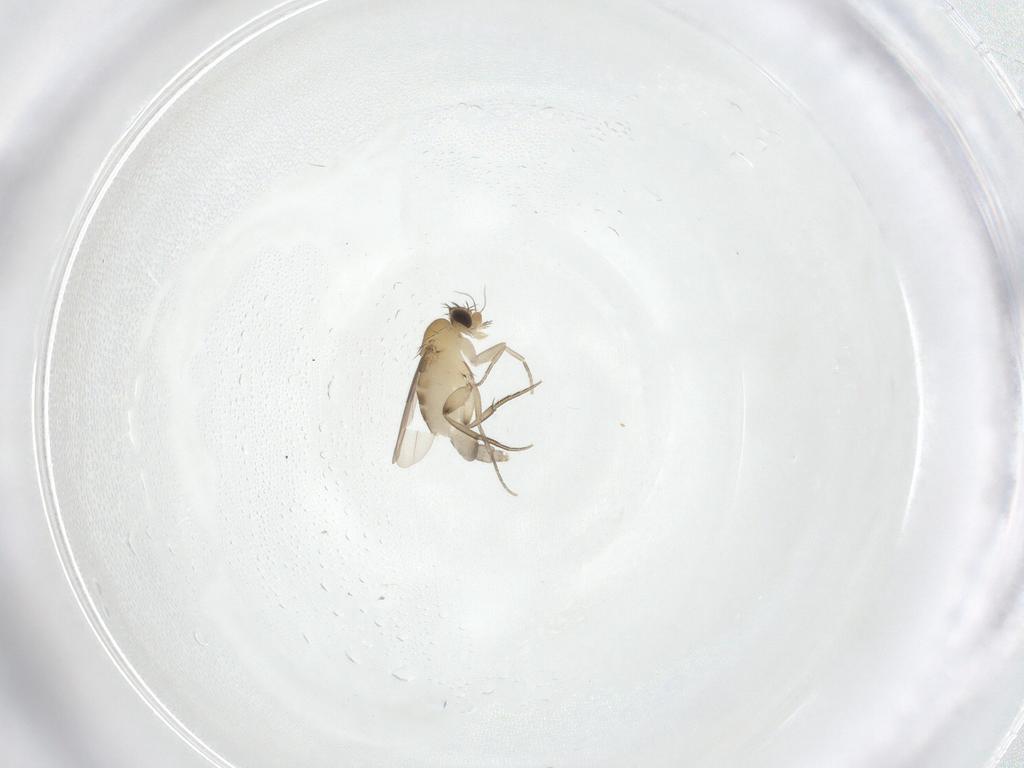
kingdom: Animalia
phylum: Arthropoda
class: Insecta
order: Diptera
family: Phoridae
